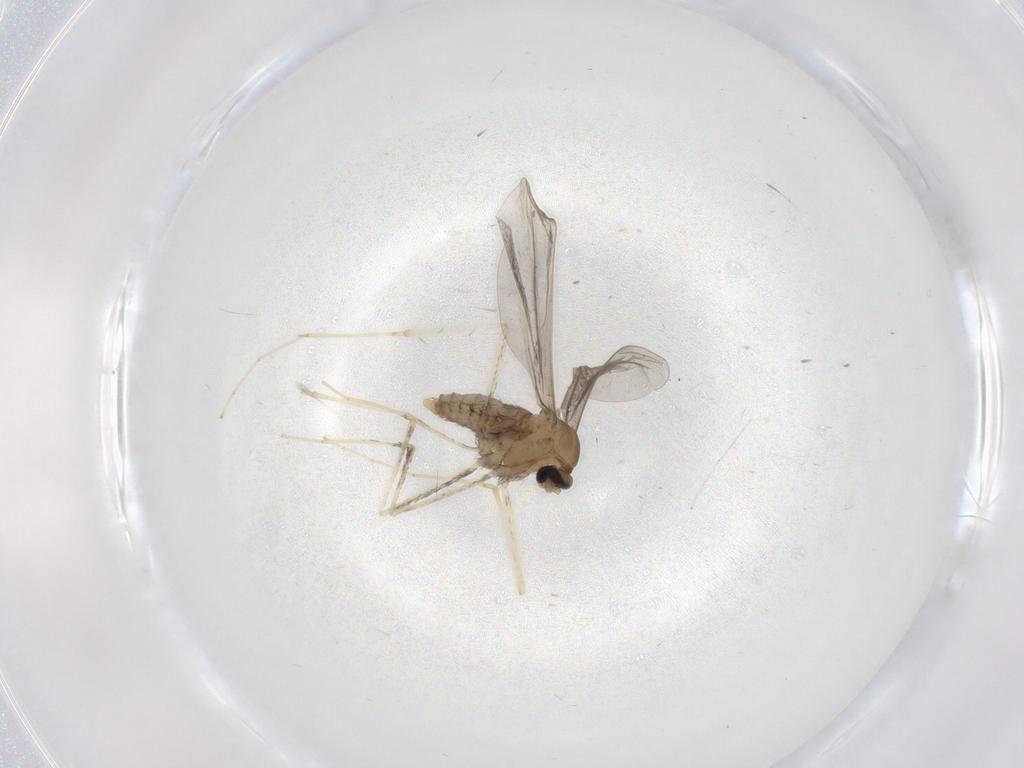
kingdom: Animalia
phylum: Arthropoda
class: Insecta
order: Diptera
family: Cecidomyiidae
